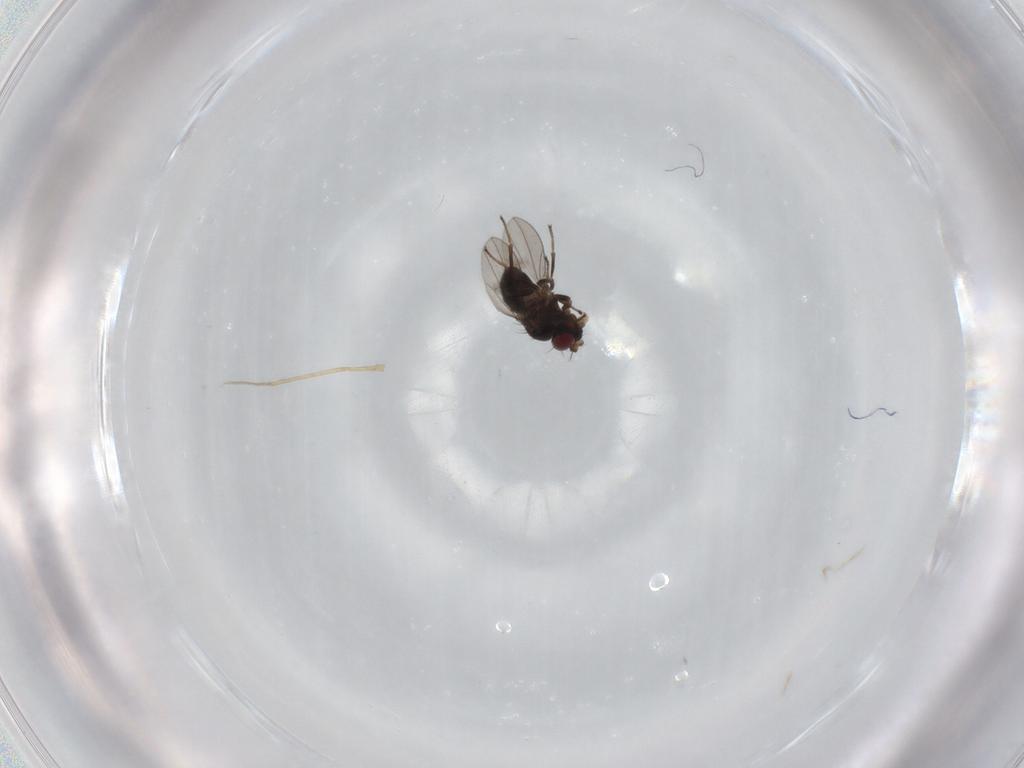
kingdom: Animalia
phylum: Arthropoda
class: Insecta
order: Diptera
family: Ephydridae
